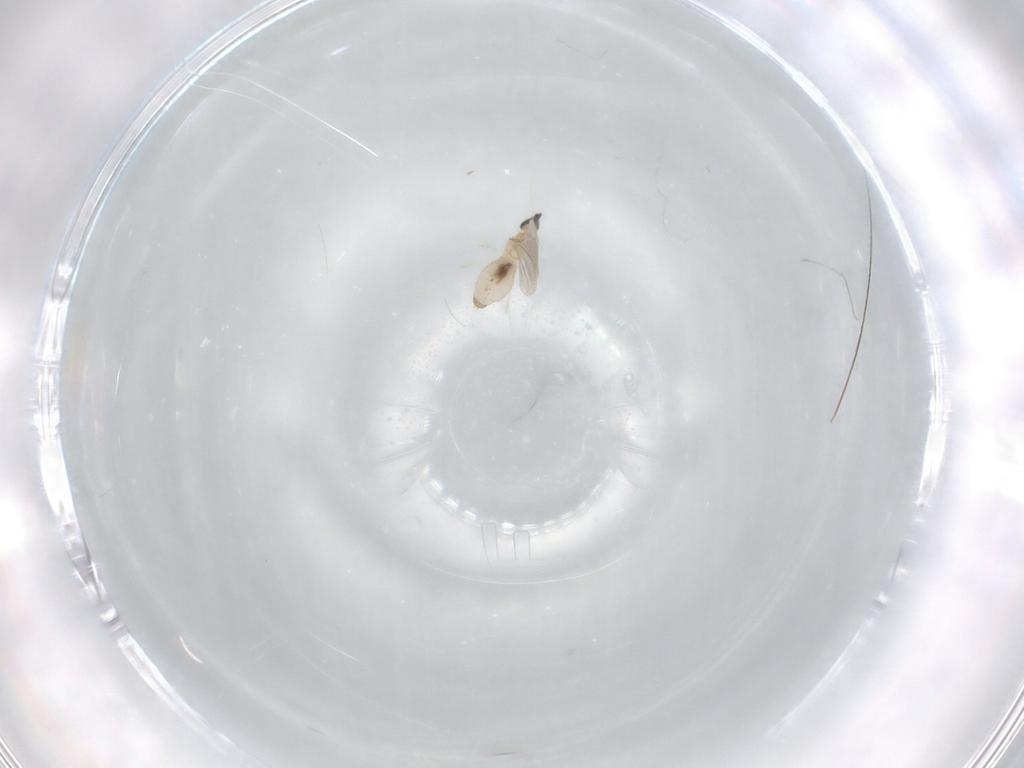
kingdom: Animalia
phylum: Arthropoda
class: Insecta
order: Diptera
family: Cecidomyiidae
